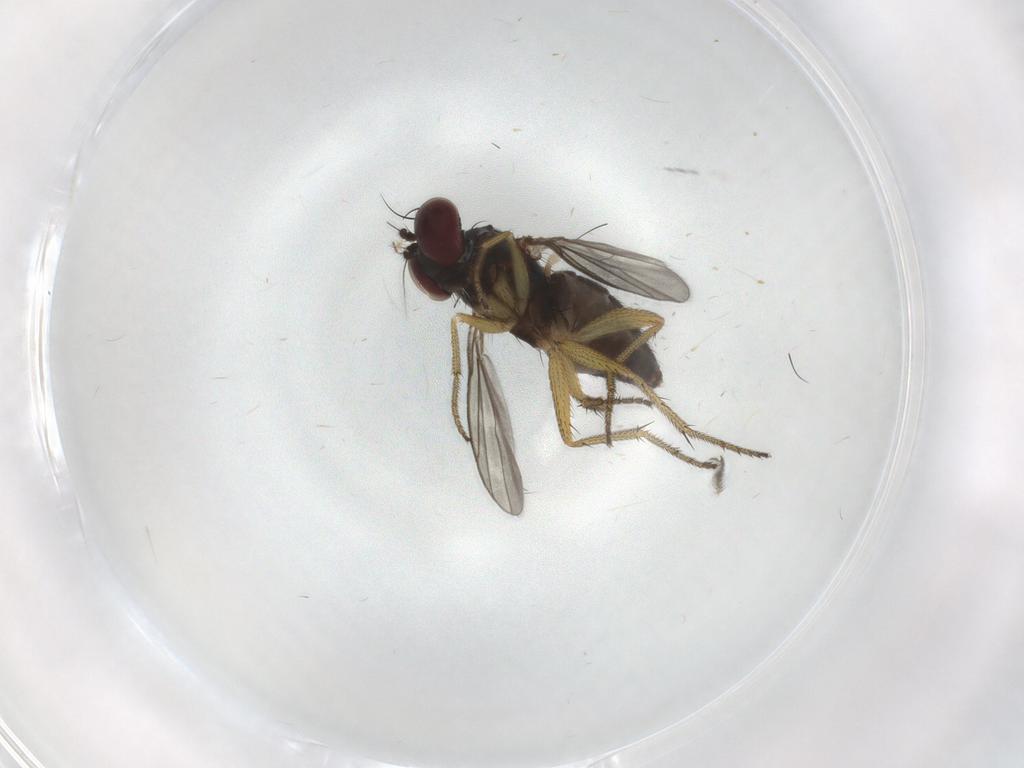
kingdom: Animalia
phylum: Arthropoda
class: Insecta
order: Diptera
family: Dolichopodidae
